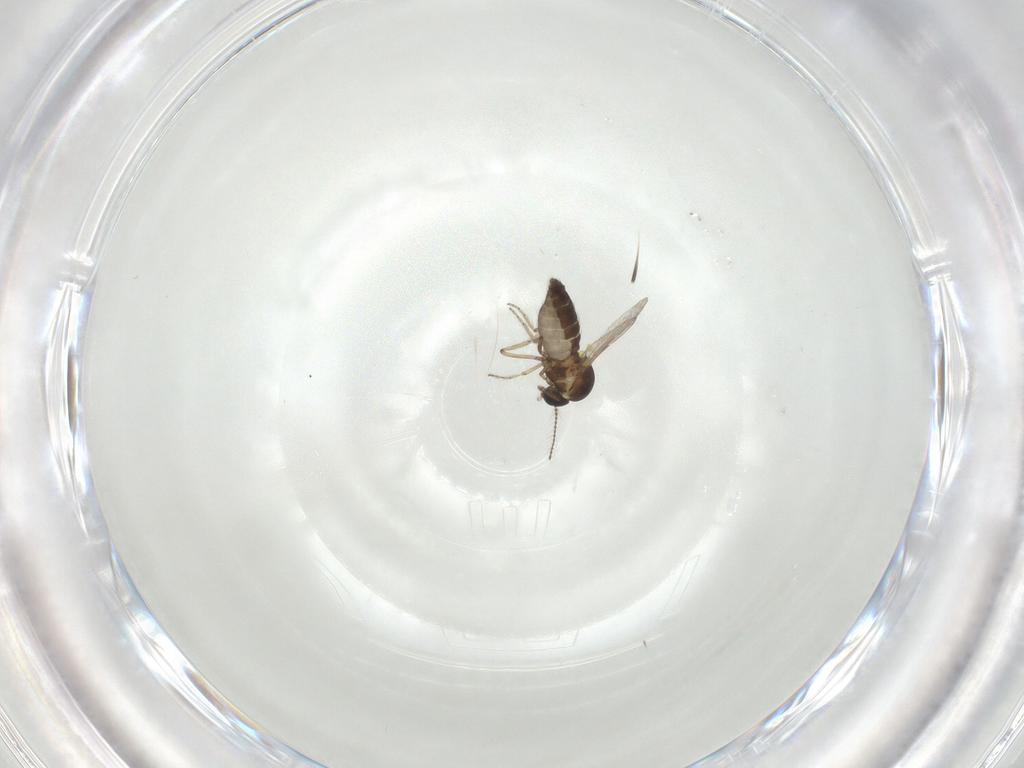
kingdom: Animalia
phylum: Arthropoda
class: Insecta
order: Diptera
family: Ceratopogonidae
